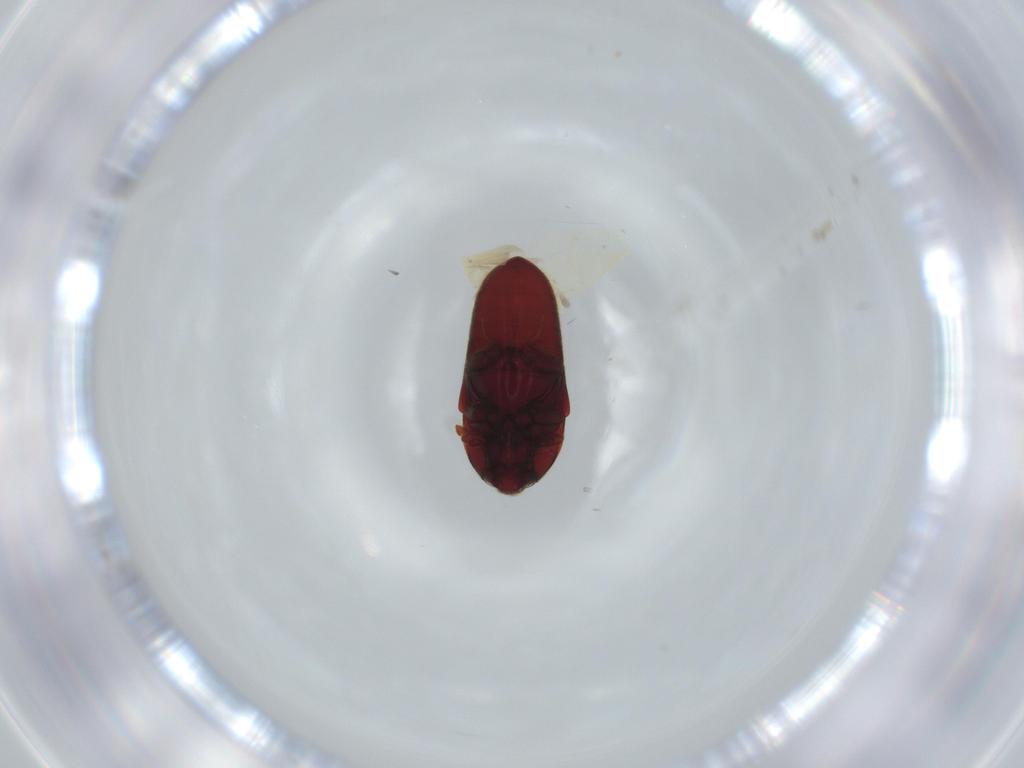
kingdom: Animalia
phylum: Arthropoda
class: Insecta
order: Coleoptera
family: Throscidae
